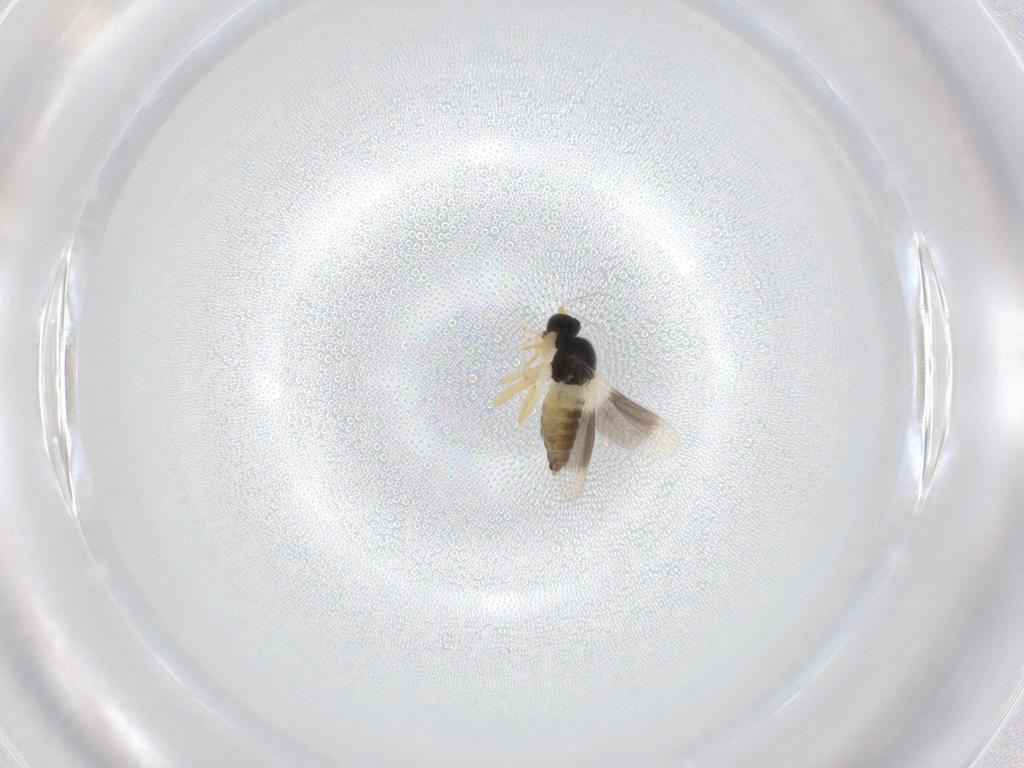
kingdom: Animalia
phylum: Arthropoda
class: Insecta
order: Diptera
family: Hybotidae
